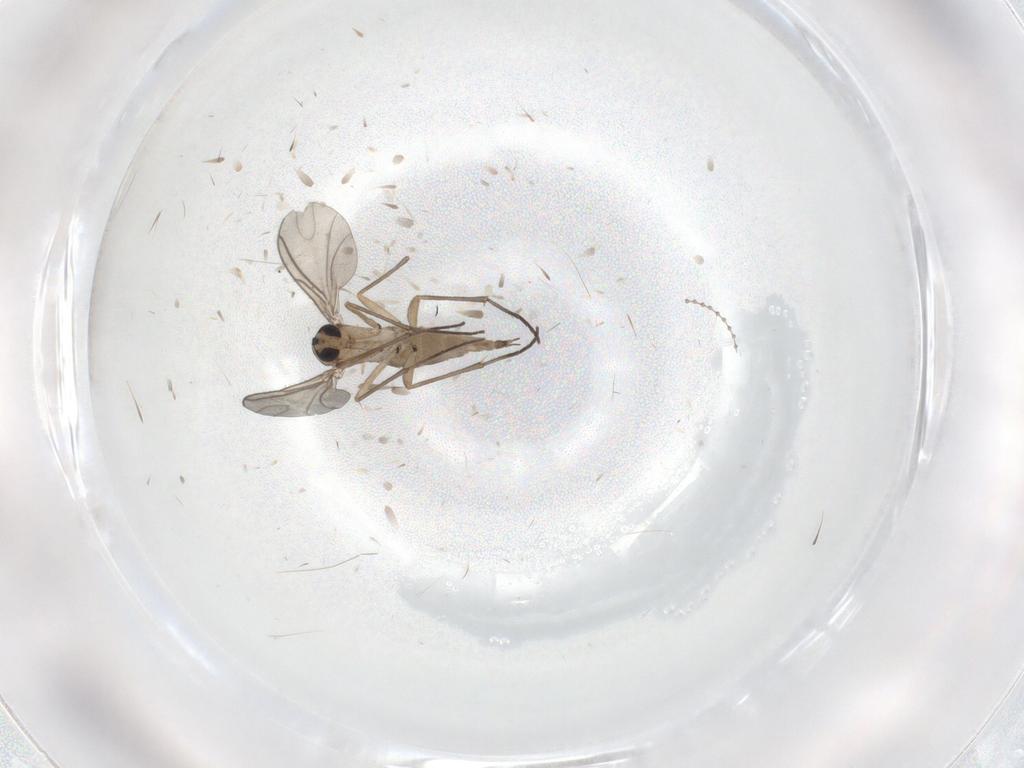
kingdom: Animalia
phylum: Arthropoda
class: Insecta
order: Diptera
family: Sciaridae
